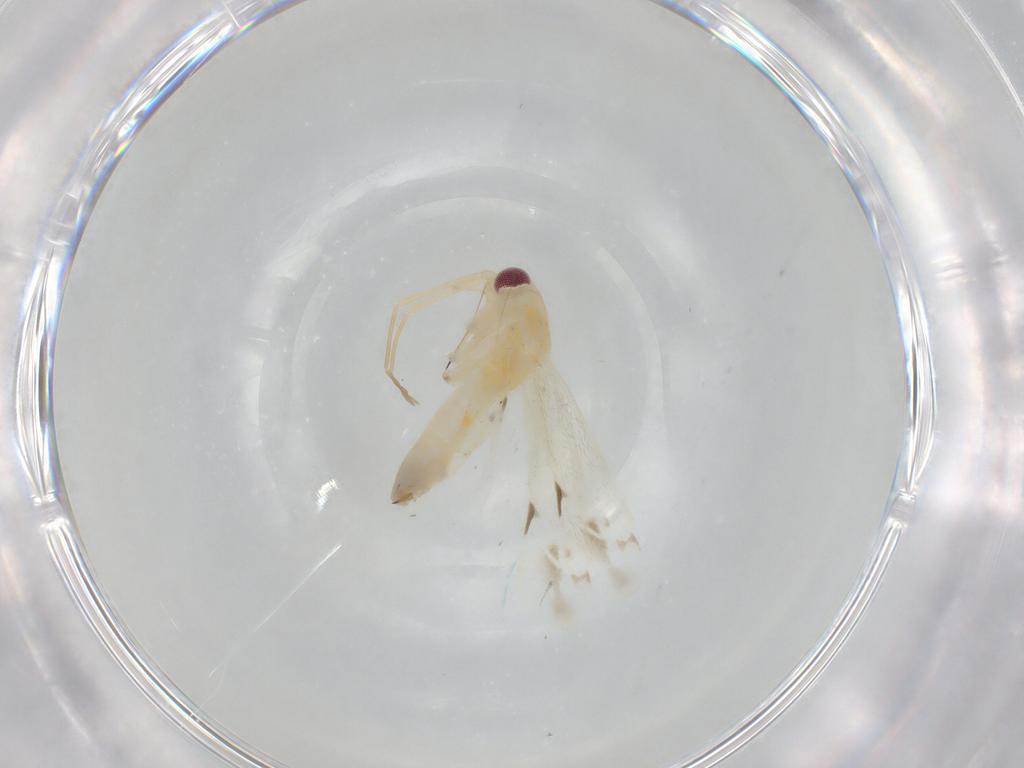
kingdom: Animalia
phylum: Arthropoda
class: Insecta
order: Hemiptera
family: Miridae
